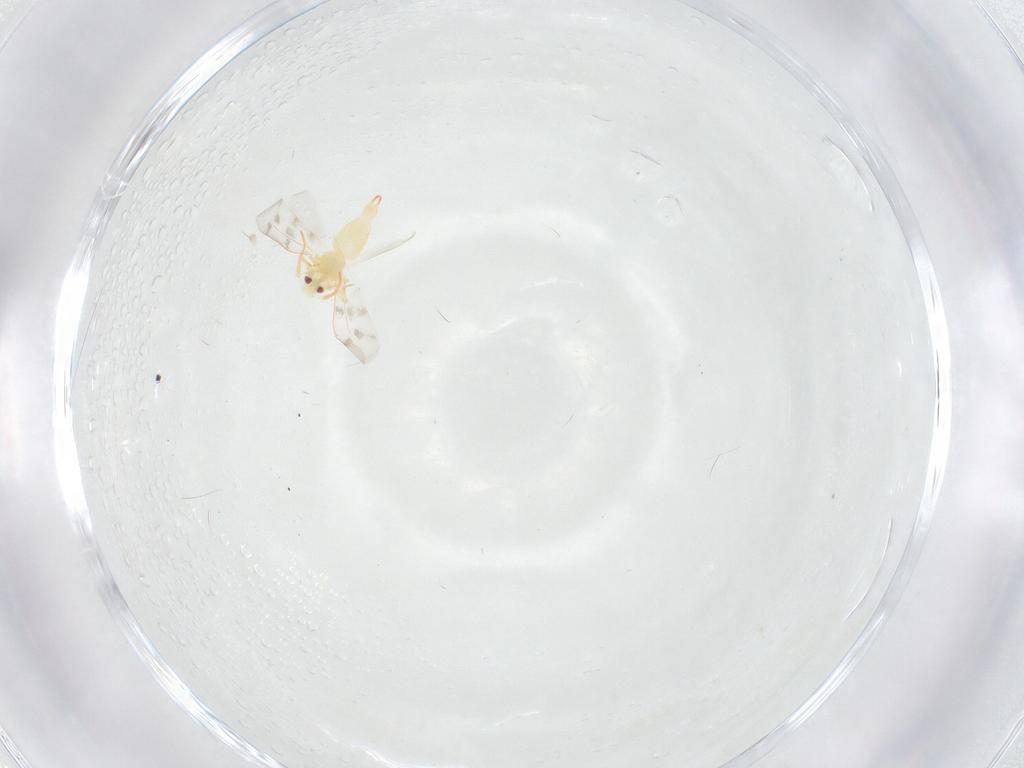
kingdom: Animalia
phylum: Arthropoda
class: Insecta
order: Hemiptera
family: Aleyrodidae
